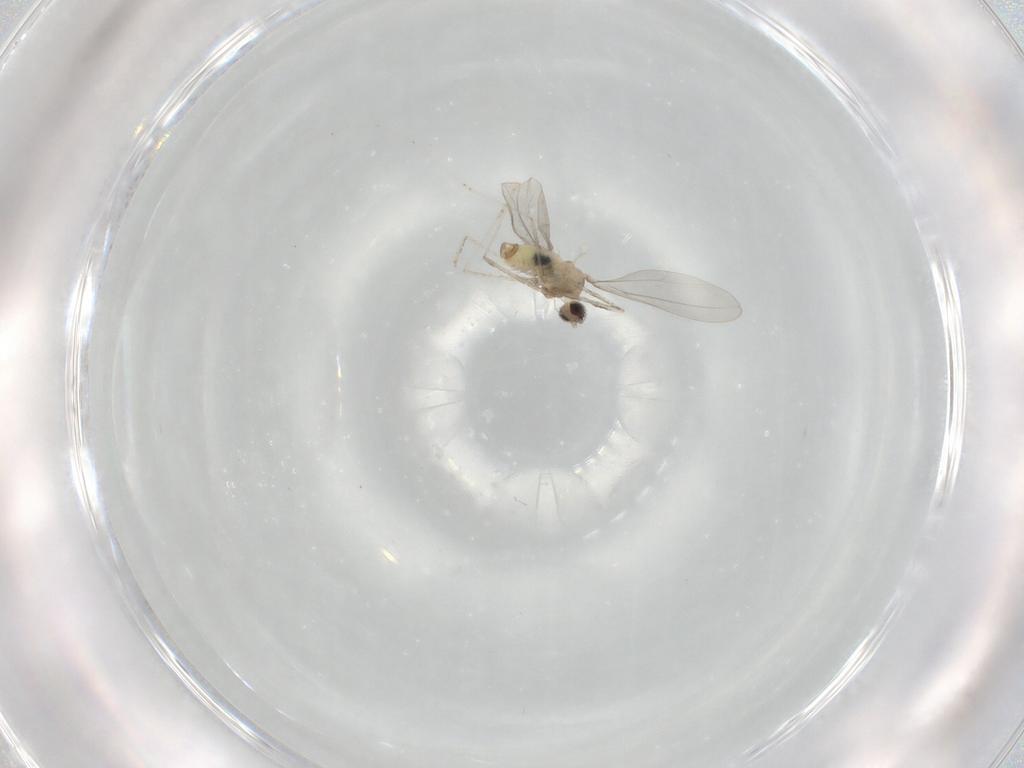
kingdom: Animalia
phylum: Arthropoda
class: Insecta
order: Diptera
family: Cecidomyiidae
